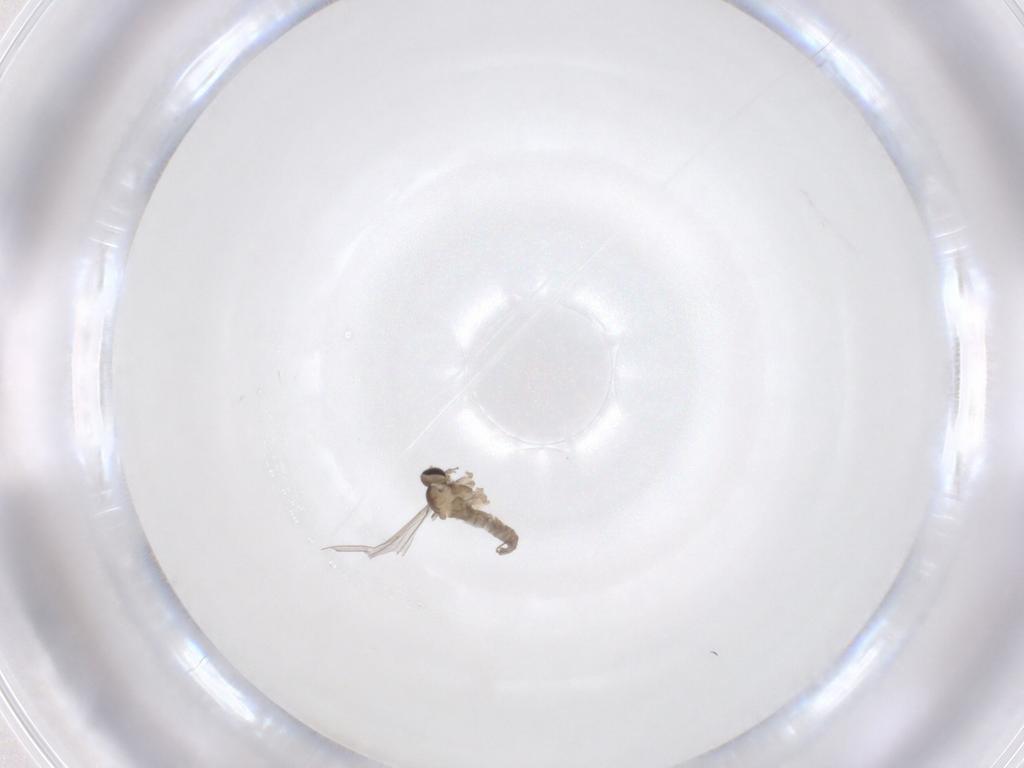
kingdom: Animalia
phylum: Arthropoda
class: Insecta
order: Diptera
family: Cecidomyiidae
